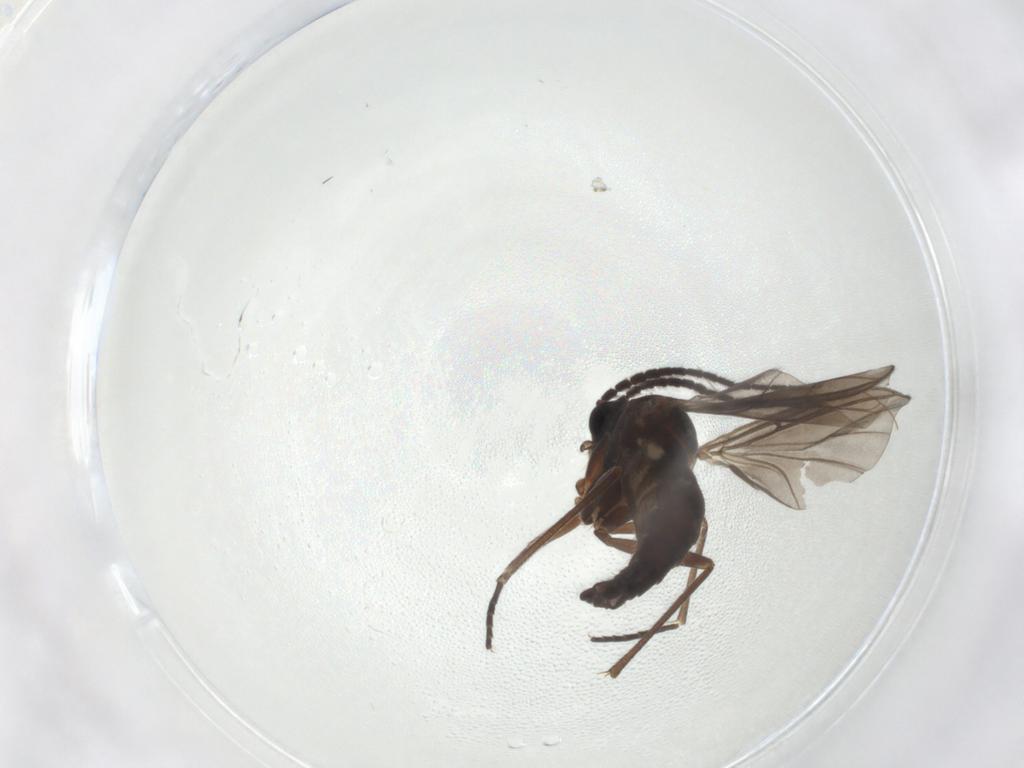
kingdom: Animalia
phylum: Arthropoda
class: Insecta
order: Diptera
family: Sciaridae
